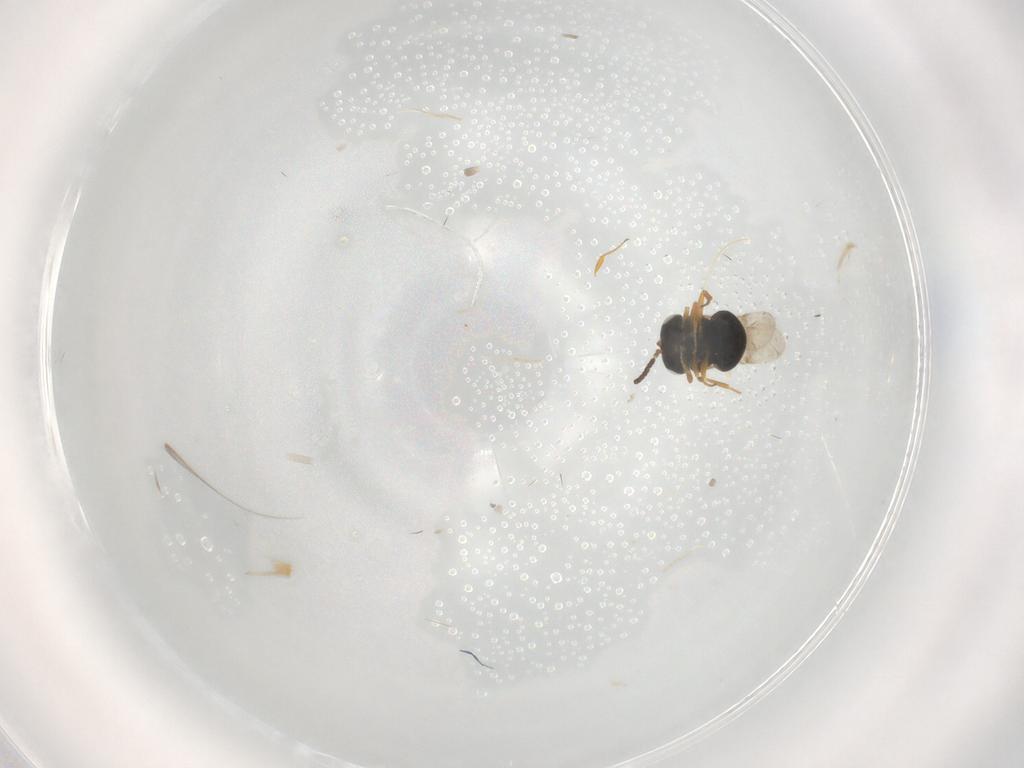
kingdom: Animalia
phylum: Arthropoda
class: Insecta
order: Hymenoptera
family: Scelionidae
